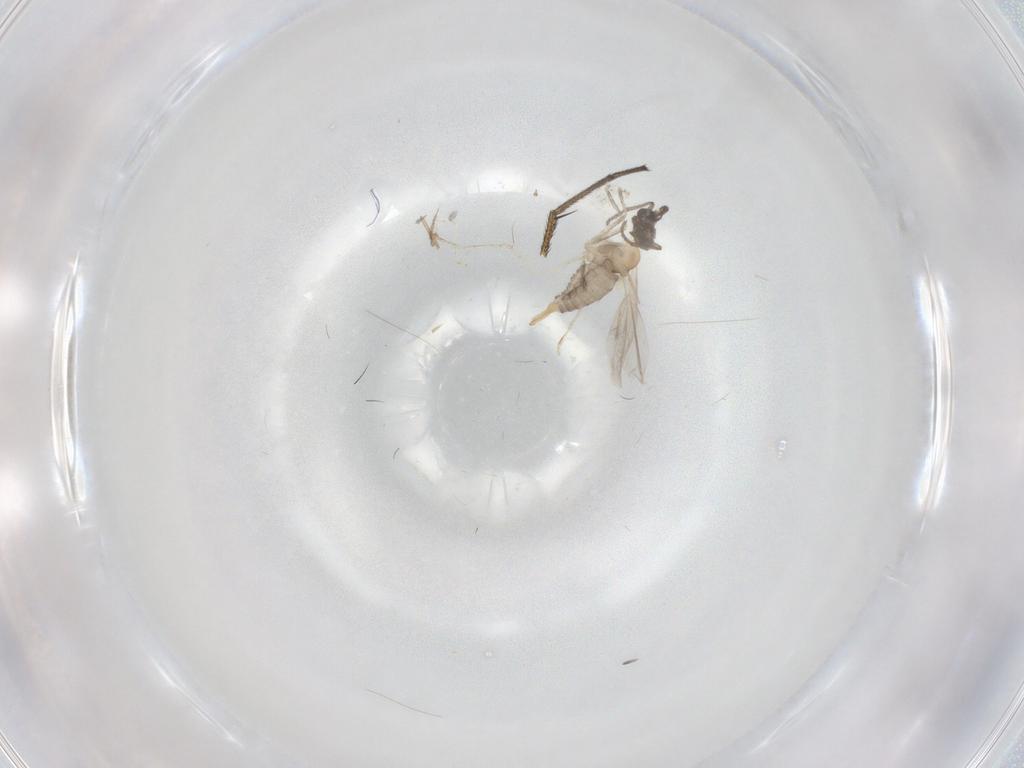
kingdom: Animalia
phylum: Arthropoda
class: Insecta
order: Diptera
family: Cecidomyiidae
